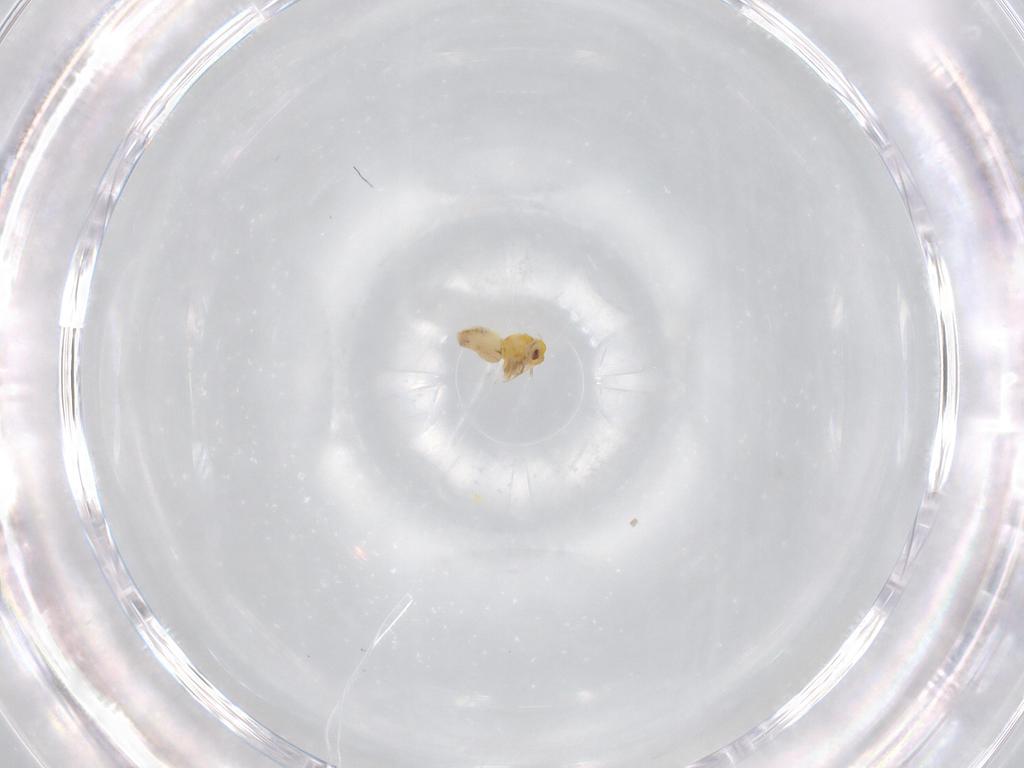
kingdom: Animalia
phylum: Arthropoda
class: Insecta
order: Hemiptera
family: Aleyrodidae
